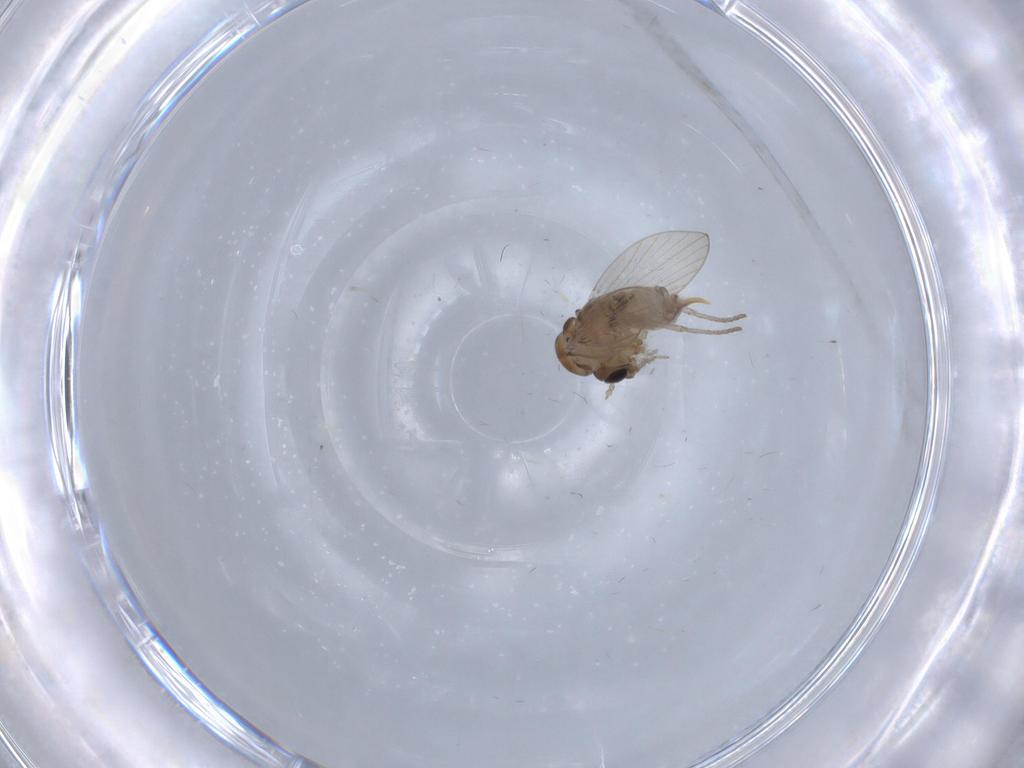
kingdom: Animalia
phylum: Arthropoda
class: Insecta
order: Diptera
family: Psychodidae
